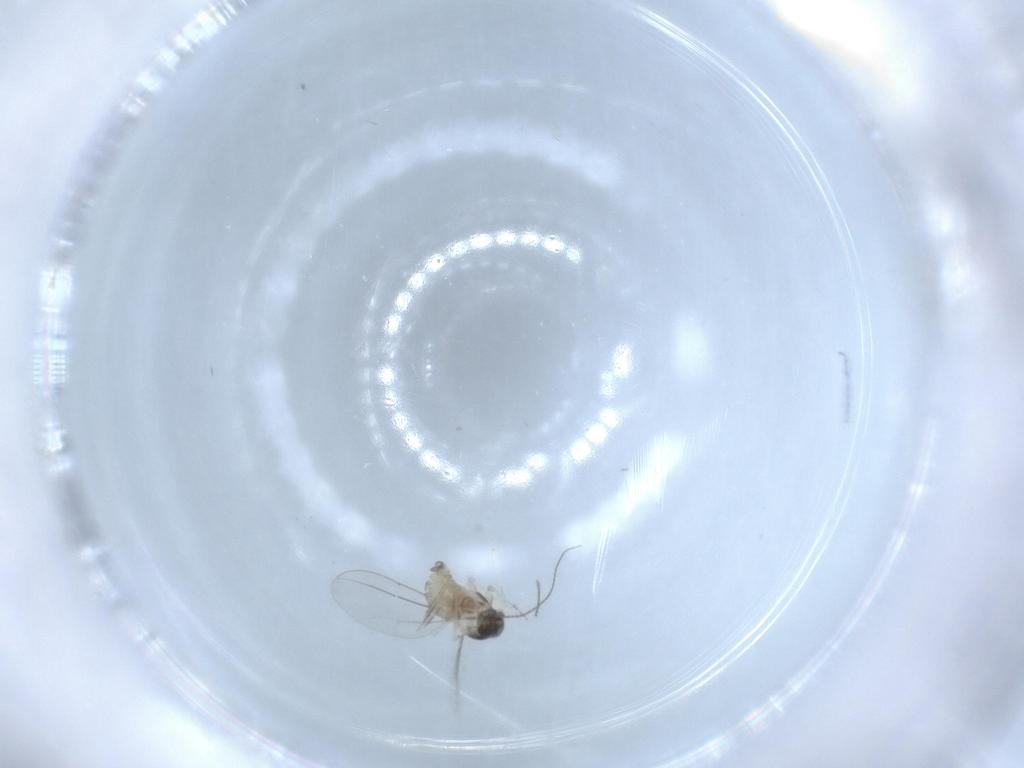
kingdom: Animalia
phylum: Arthropoda
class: Insecta
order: Diptera
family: Cecidomyiidae
